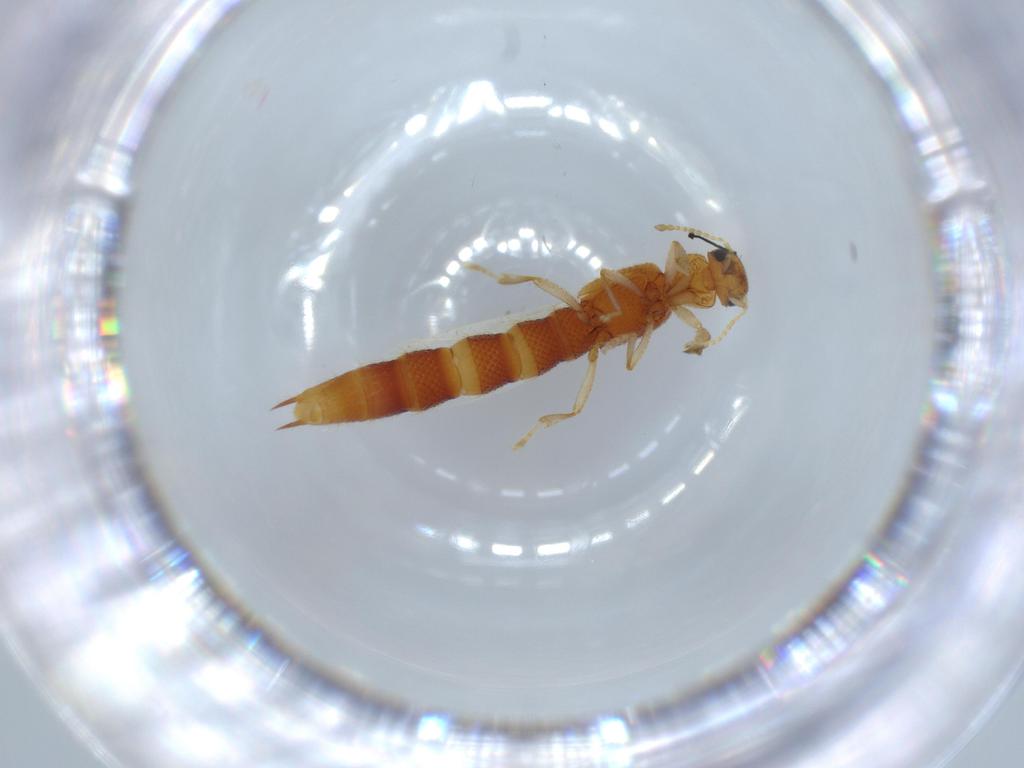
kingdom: Animalia
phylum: Arthropoda
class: Insecta
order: Coleoptera
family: Staphylinidae
